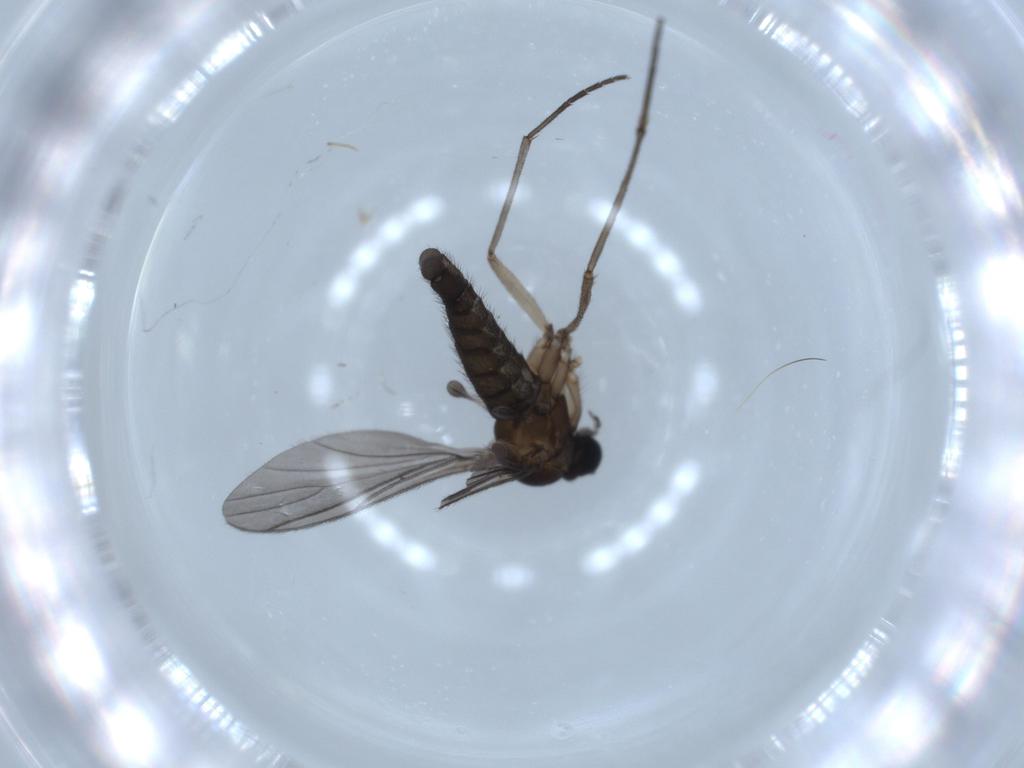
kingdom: Animalia
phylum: Arthropoda
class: Insecta
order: Diptera
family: Sciaridae
